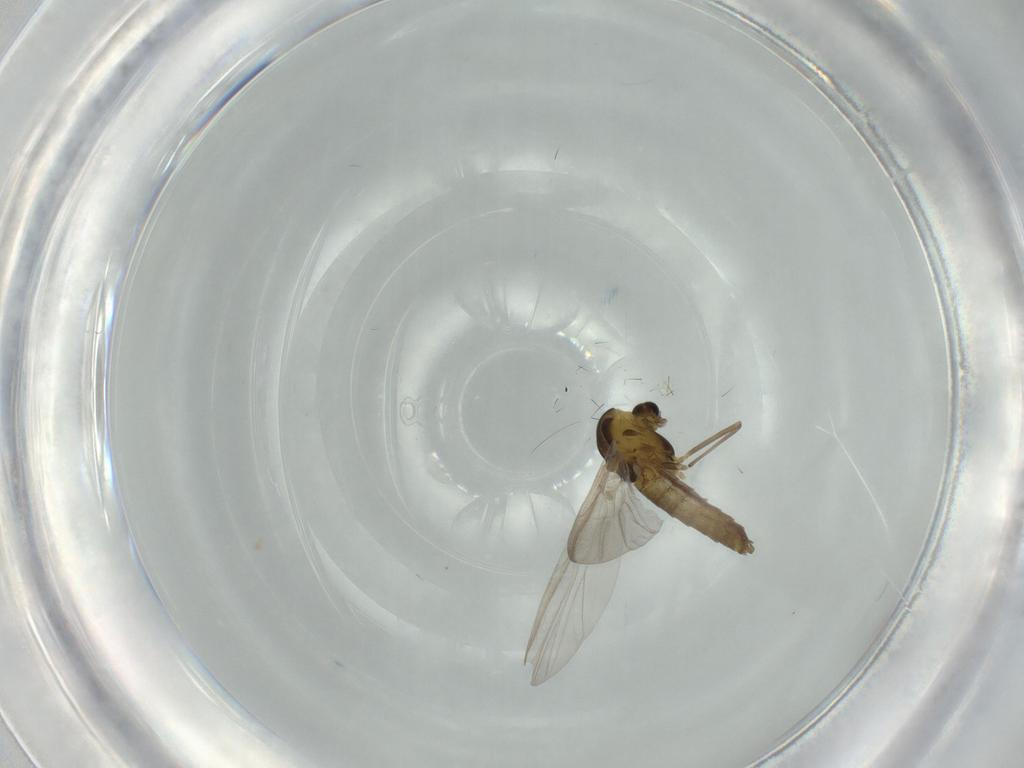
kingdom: Animalia
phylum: Arthropoda
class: Insecta
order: Diptera
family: Chironomidae
